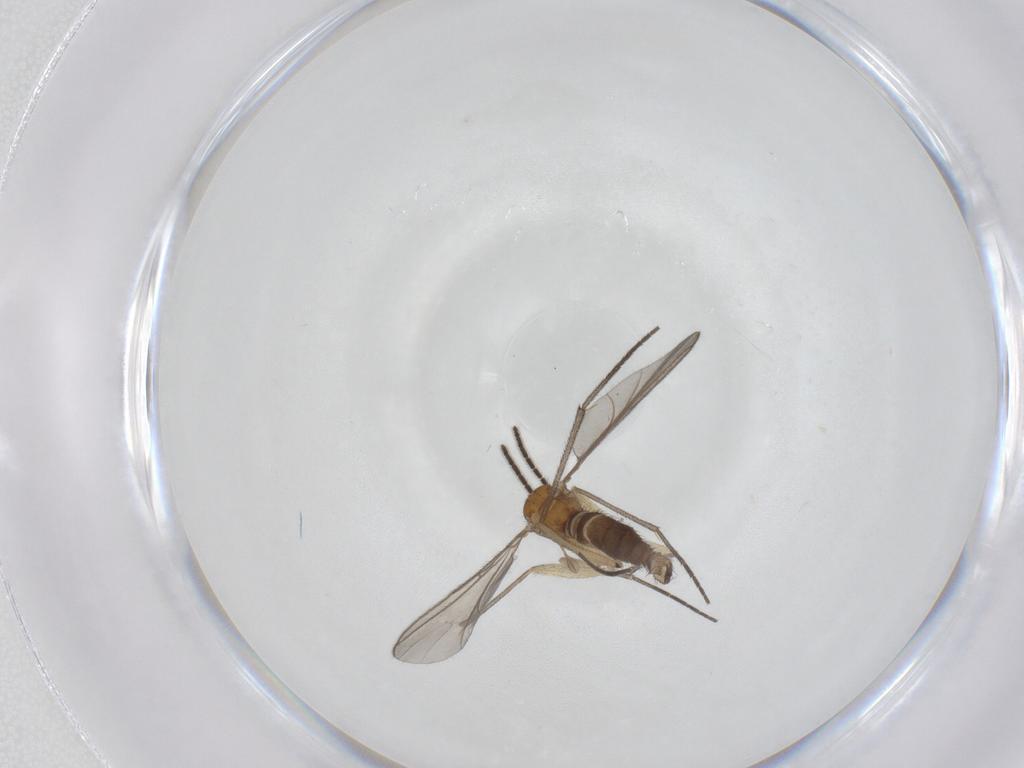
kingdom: Animalia
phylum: Arthropoda
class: Insecta
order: Diptera
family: Sciaridae
